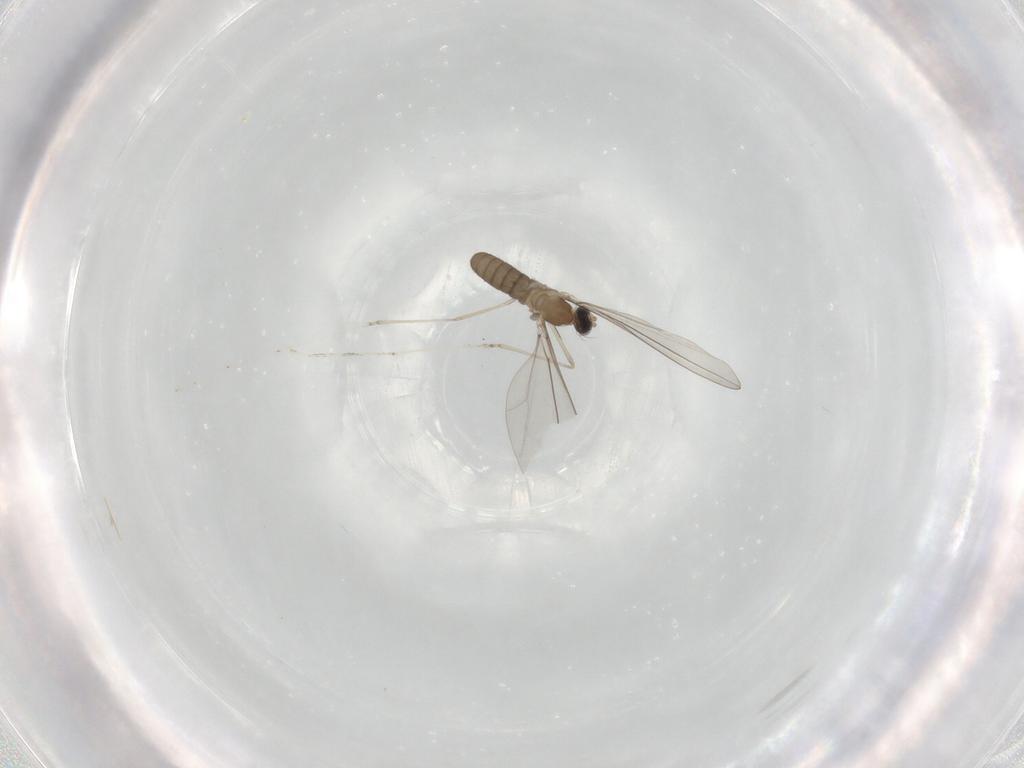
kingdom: Animalia
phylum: Arthropoda
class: Insecta
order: Diptera
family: Cecidomyiidae
